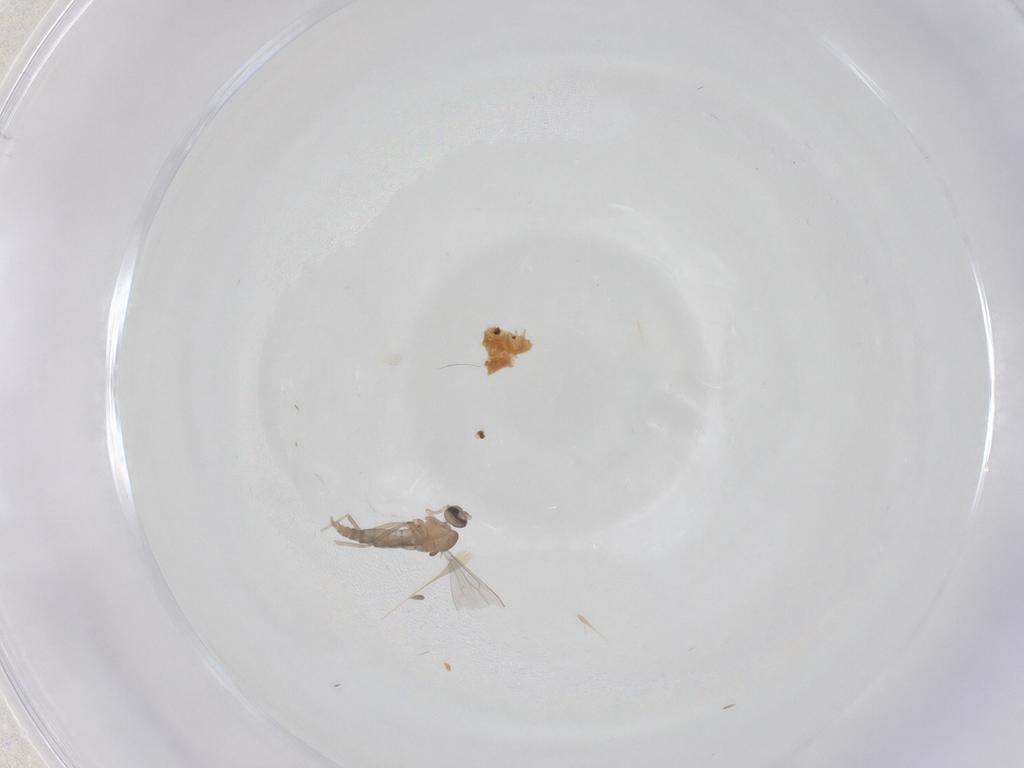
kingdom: Animalia
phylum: Arthropoda
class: Insecta
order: Diptera
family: Cecidomyiidae
